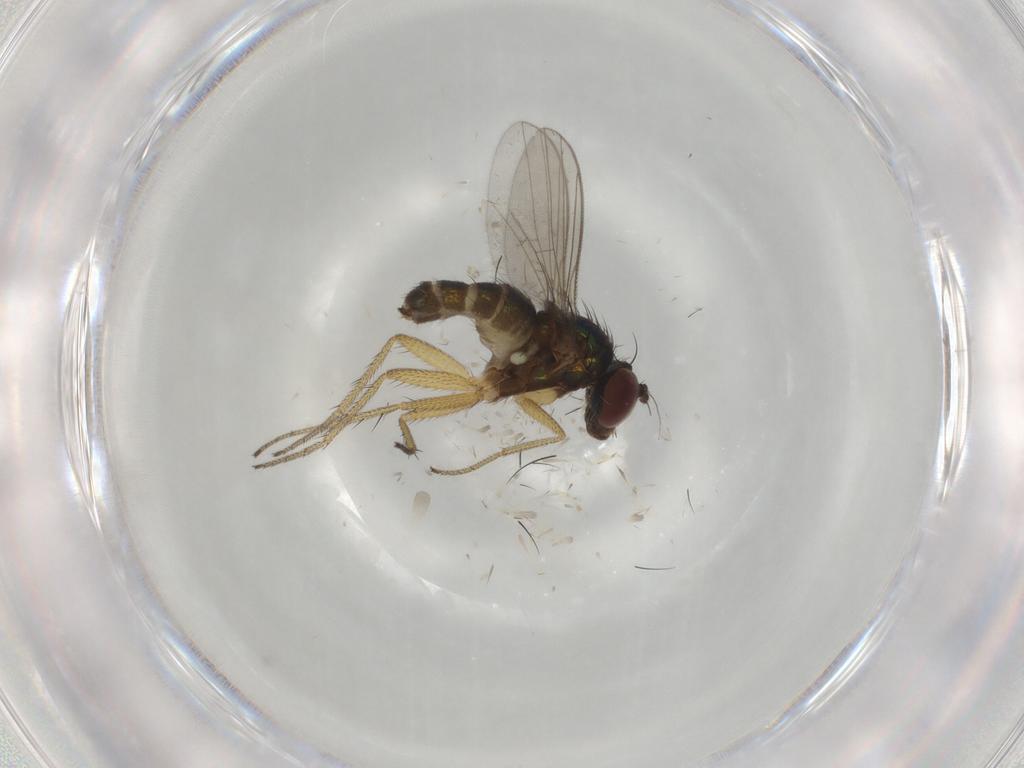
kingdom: Animalia
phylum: Arthropoda
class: Insecta
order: Diptera
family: Dolichopodidae
